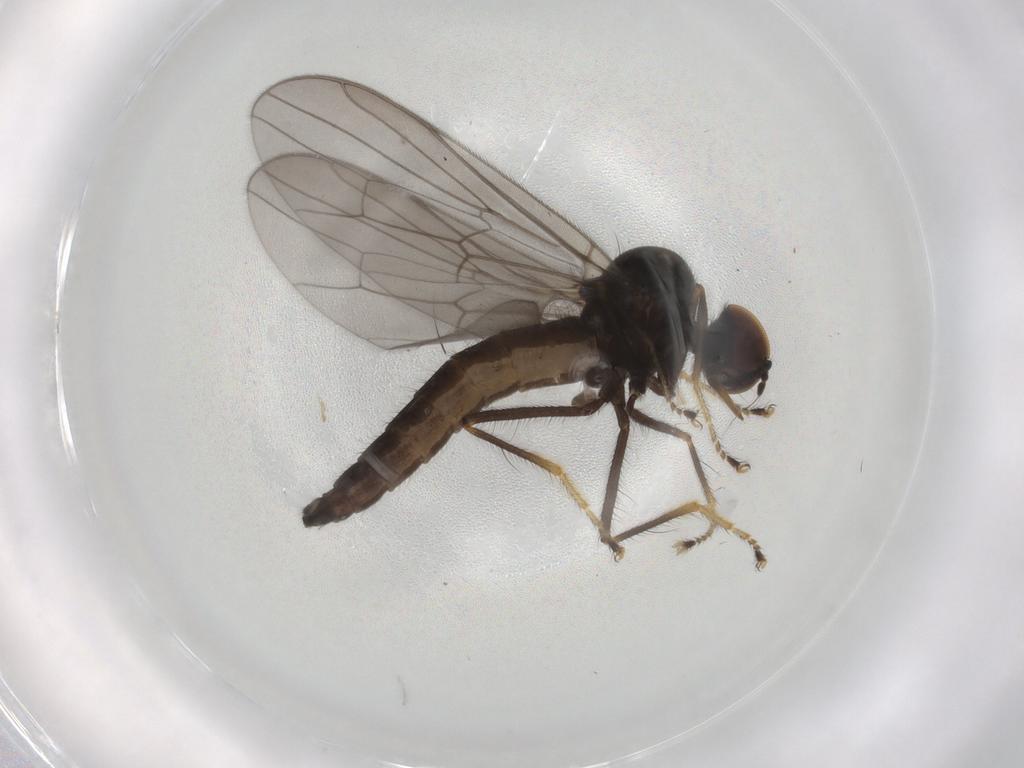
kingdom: Animalia
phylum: Arthropoda
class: Insecta
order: Diptera
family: Hybotidae
